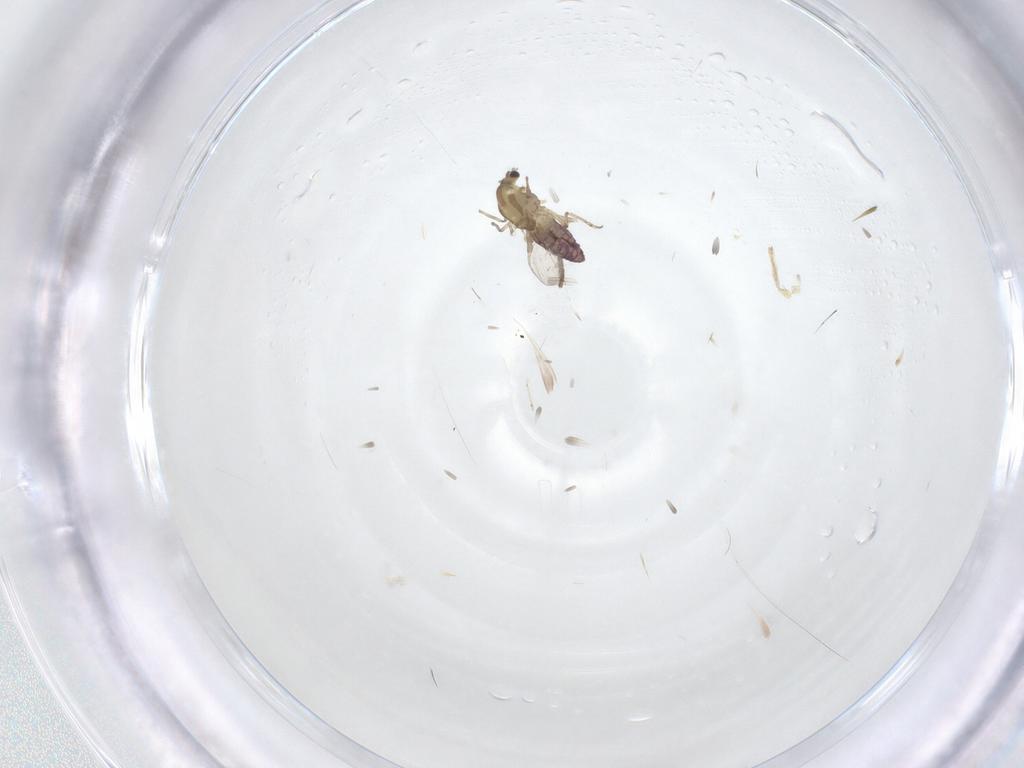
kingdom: Animalia
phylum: Arthropoda
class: Insecta
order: Diptera
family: Psychodidae
